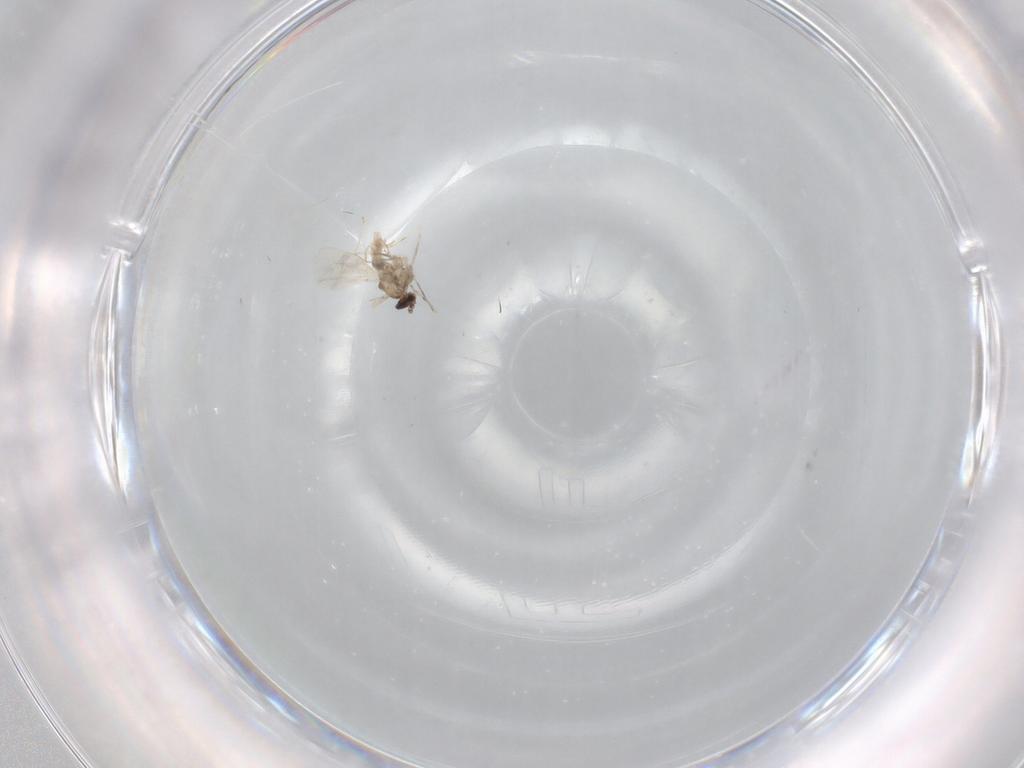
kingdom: Animalia
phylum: Arthropoda
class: Insecta
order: Diptera
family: Cecidomyiidae
